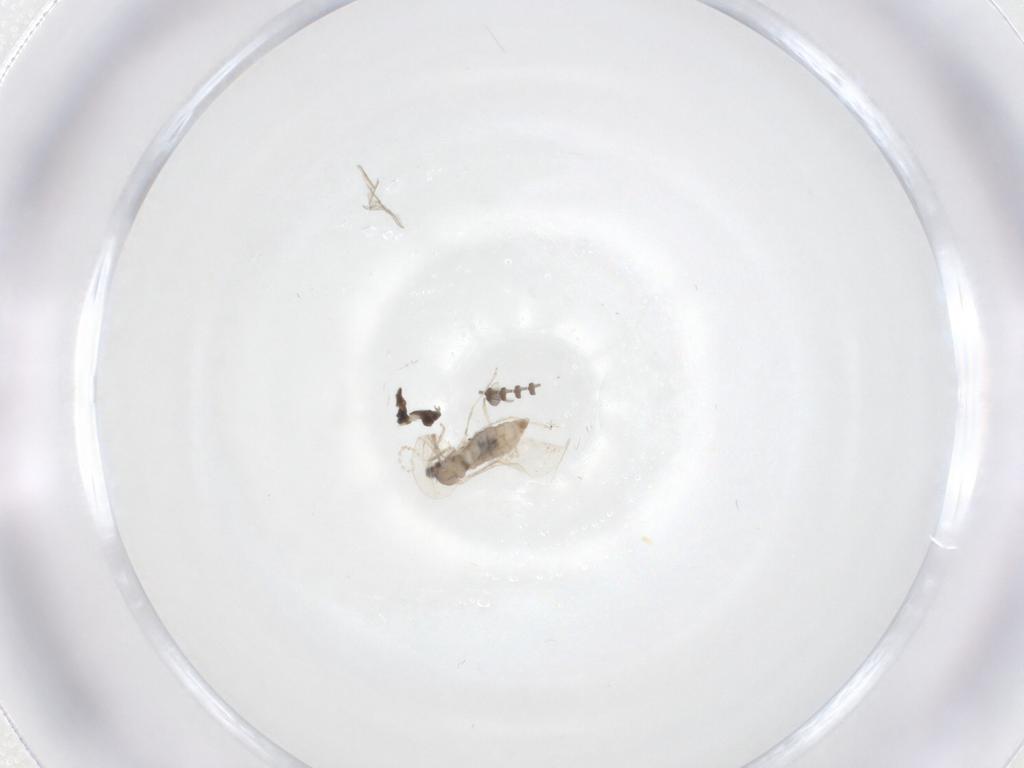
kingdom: Animalia
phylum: Arthropoda
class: Insecta
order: Diptera
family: Cecidomyiidae
